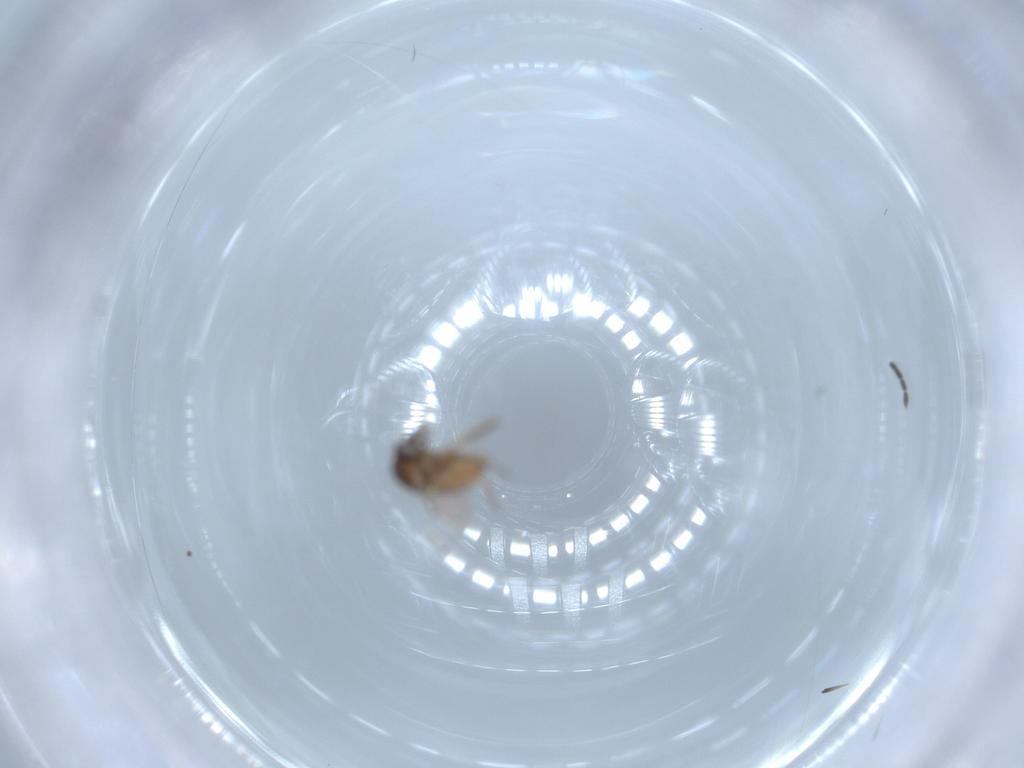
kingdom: Animalia
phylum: Arthropoda
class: Insecta
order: Diptera
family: Ceratopogonidae
